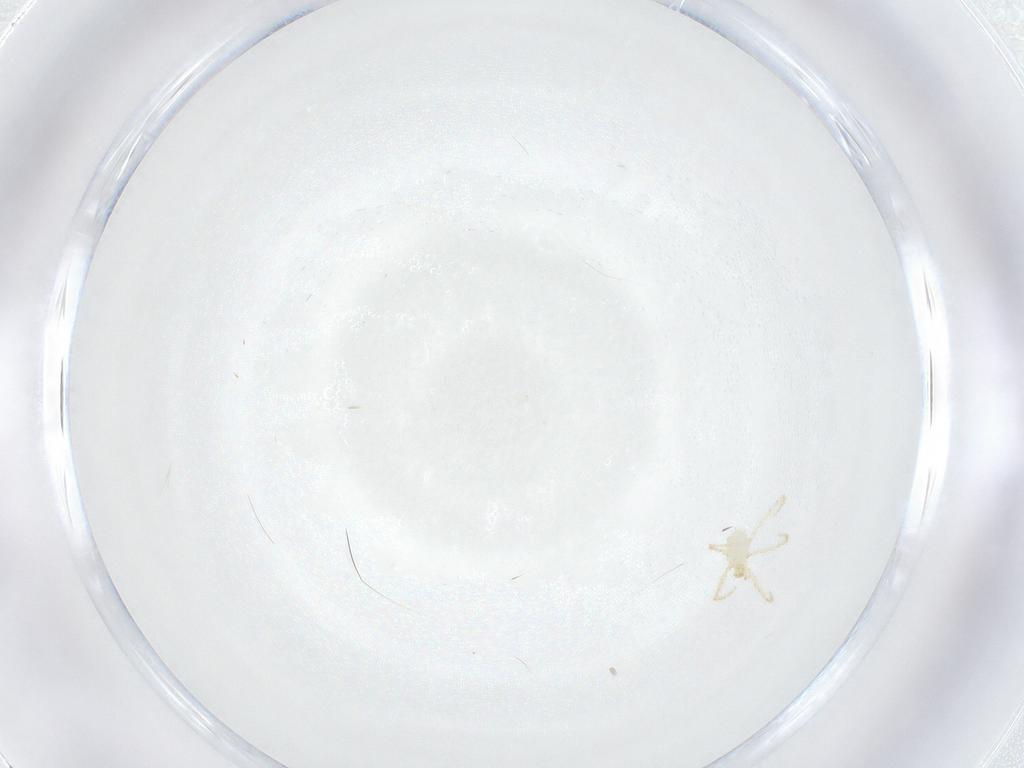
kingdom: Animalia
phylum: Arthropoda
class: Arachnida
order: Trombidiformes
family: Erythraeidae
